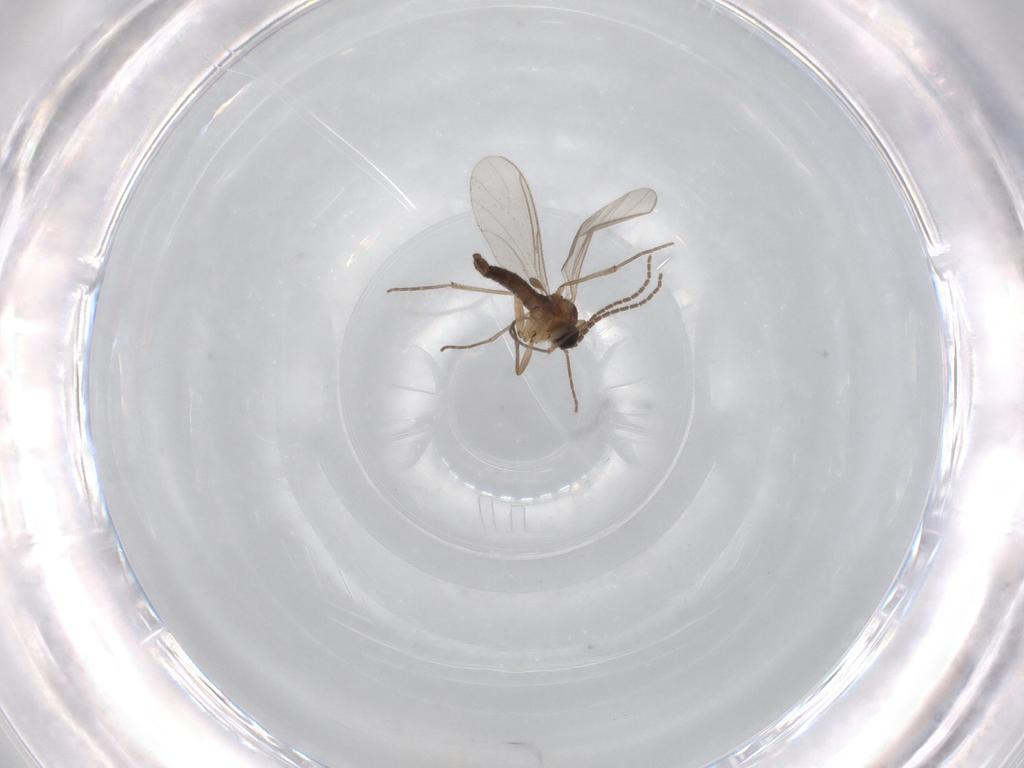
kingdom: Animalia
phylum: Arthropoda
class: Insecta
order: Diptera
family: Sciaridae
